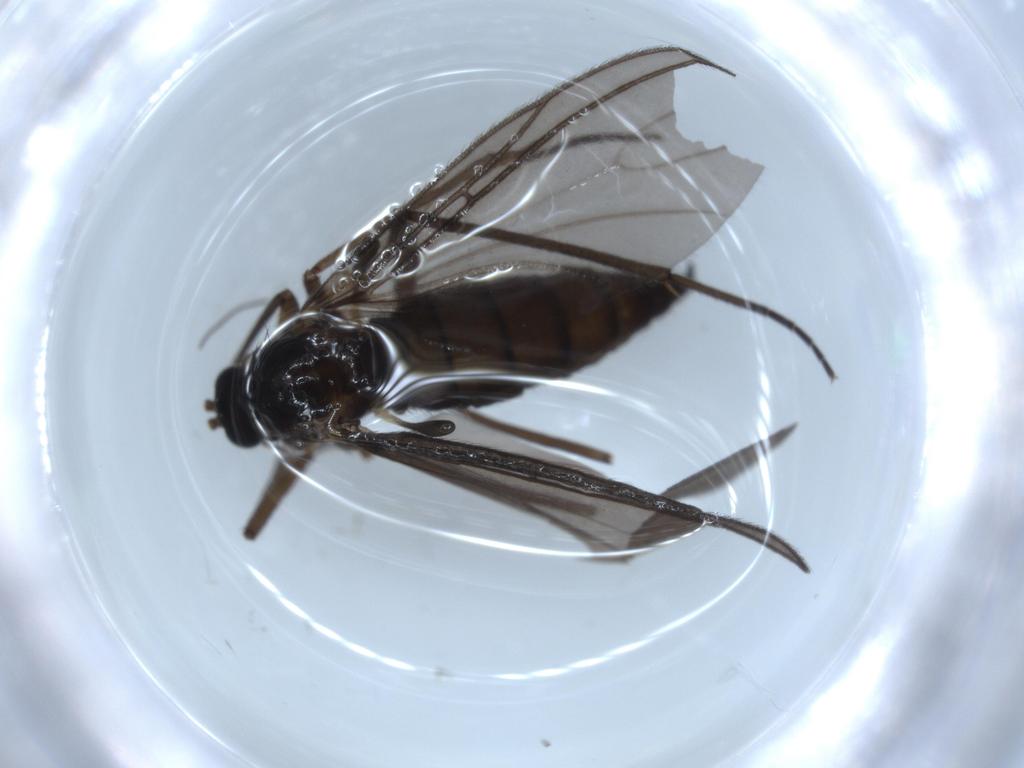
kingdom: Animalia
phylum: Arthropoda
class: Insecta
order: Diptera
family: Sciaridae
